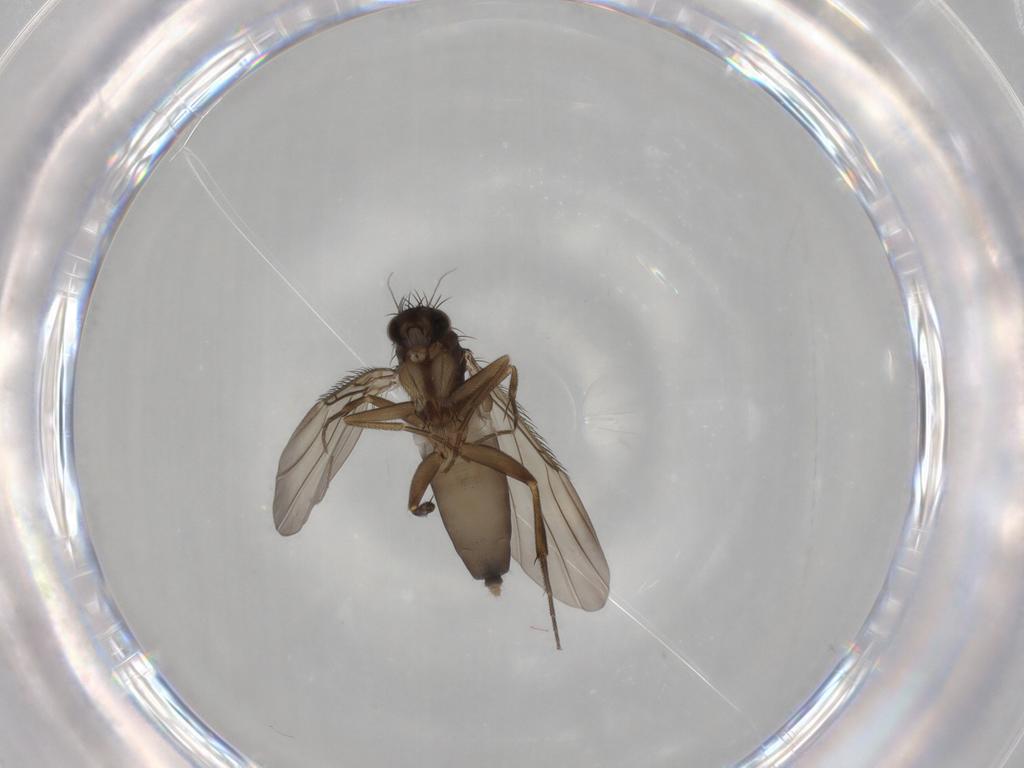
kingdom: Animalia
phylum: Arthropoda
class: Insecta
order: Diptera
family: Phoridae
